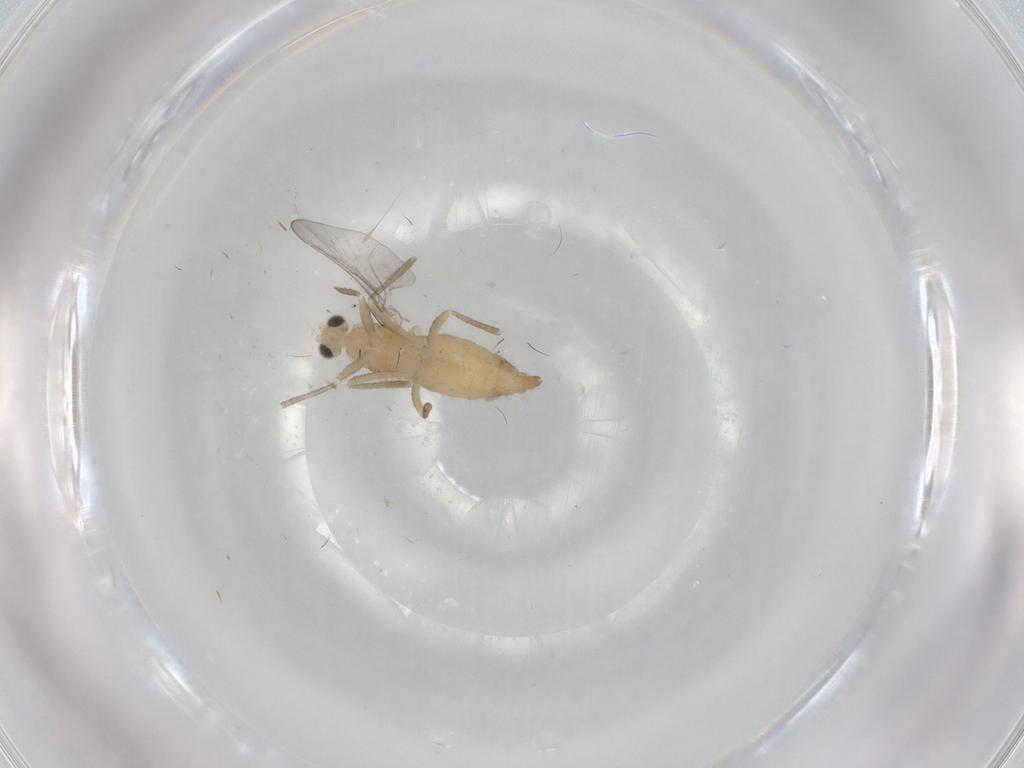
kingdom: Animalia
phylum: Arthropoda
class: Insecta
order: Diptera
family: Cecidomyiidae
